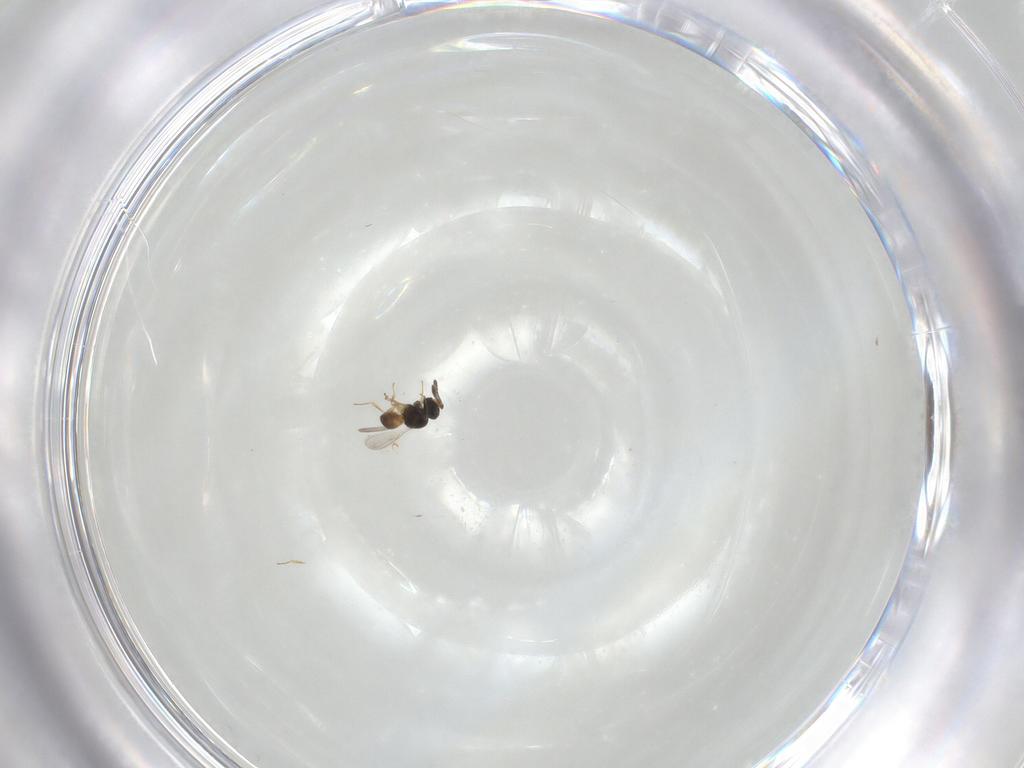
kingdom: Animalia
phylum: Arthropoda
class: Insecta
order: Hymenoptera
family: Scelionidae
